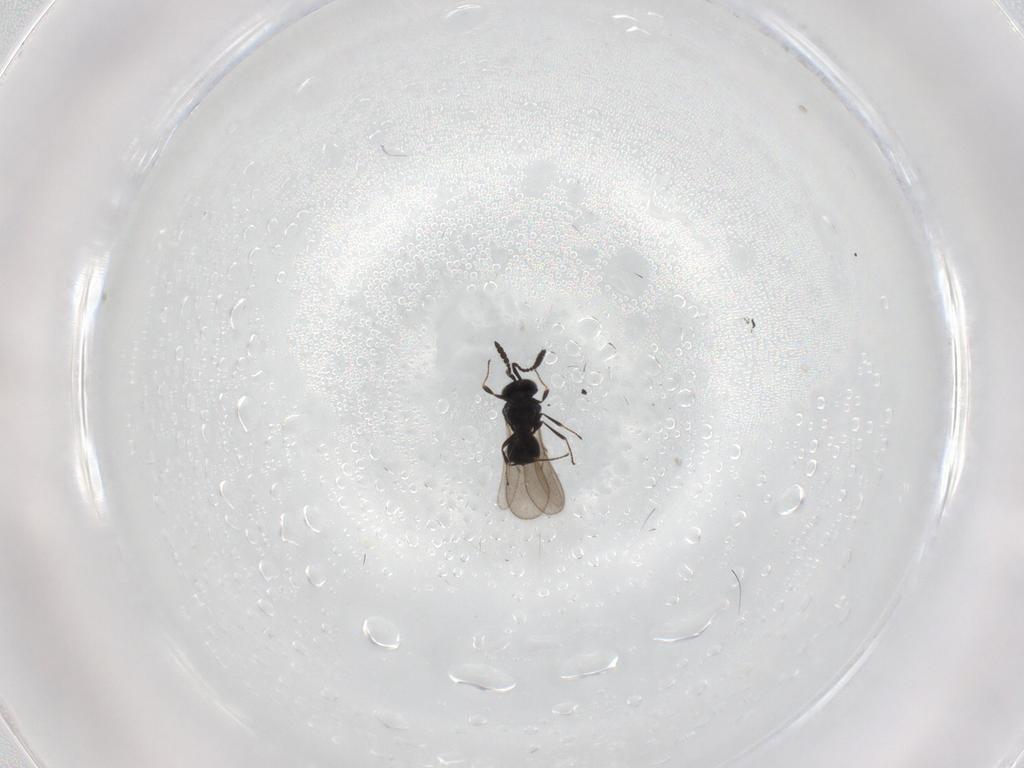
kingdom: Animalia
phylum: Arthropoda
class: Insecta
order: Hymenoptera
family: Scelionidae
